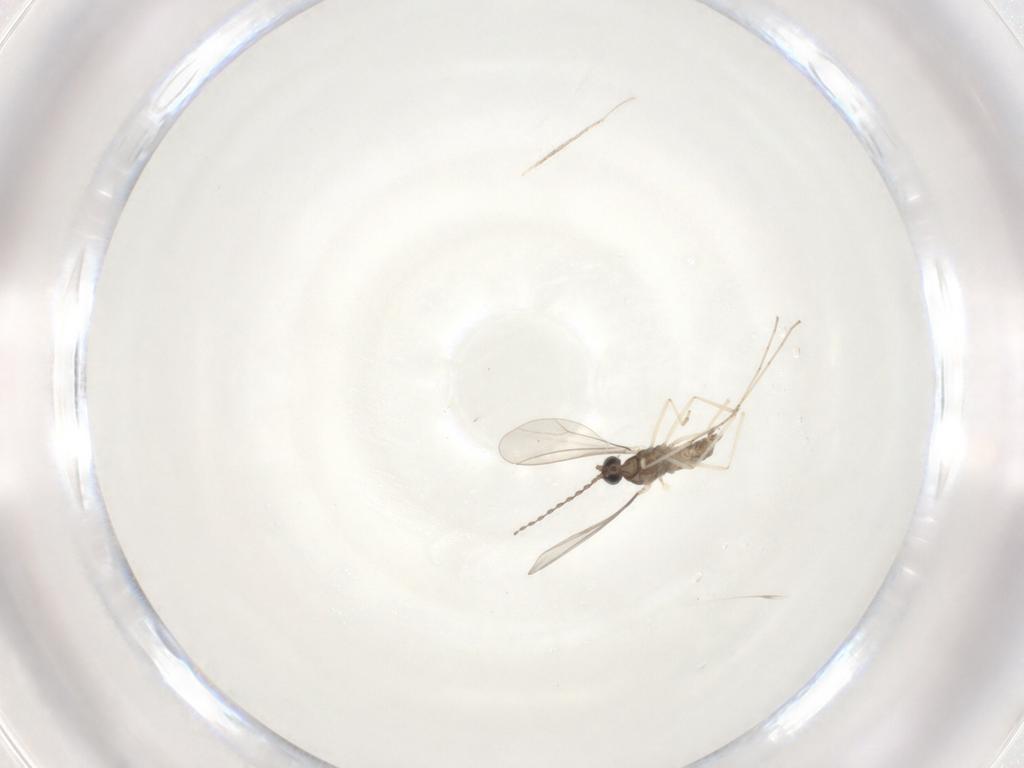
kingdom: Animalia
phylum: Arthropoda
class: Insecta
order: Diptera
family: Cecidomyiidae
